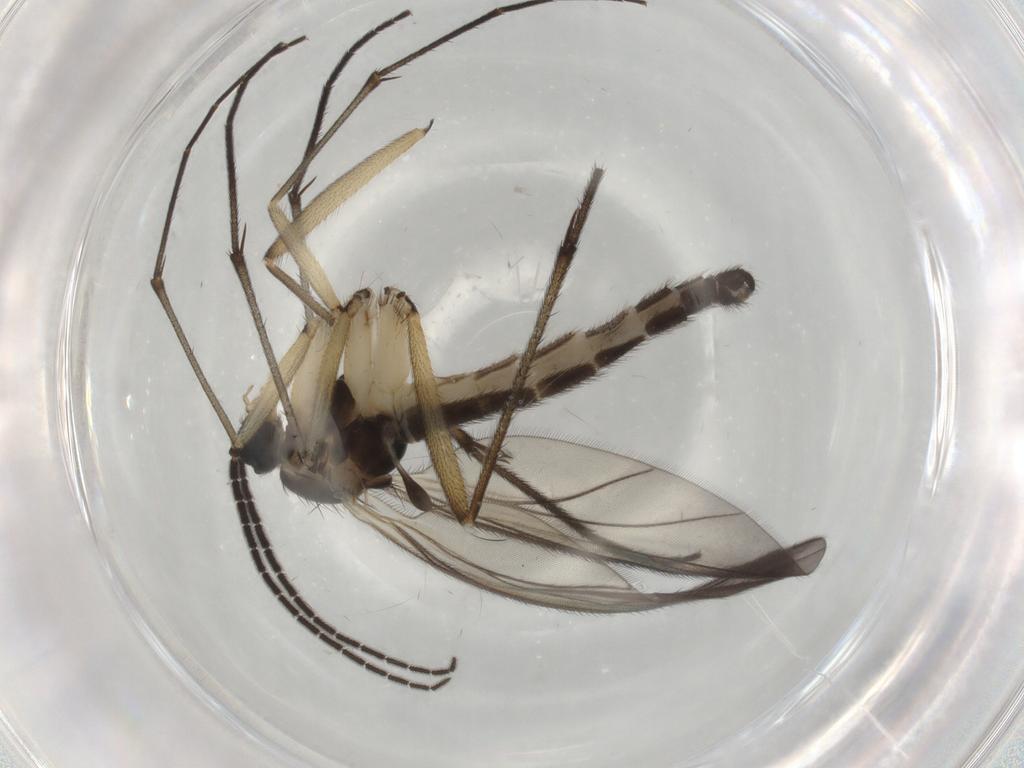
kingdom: Animalia
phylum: Arthropoda
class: Insecta
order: Diptera
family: Sciaridae
